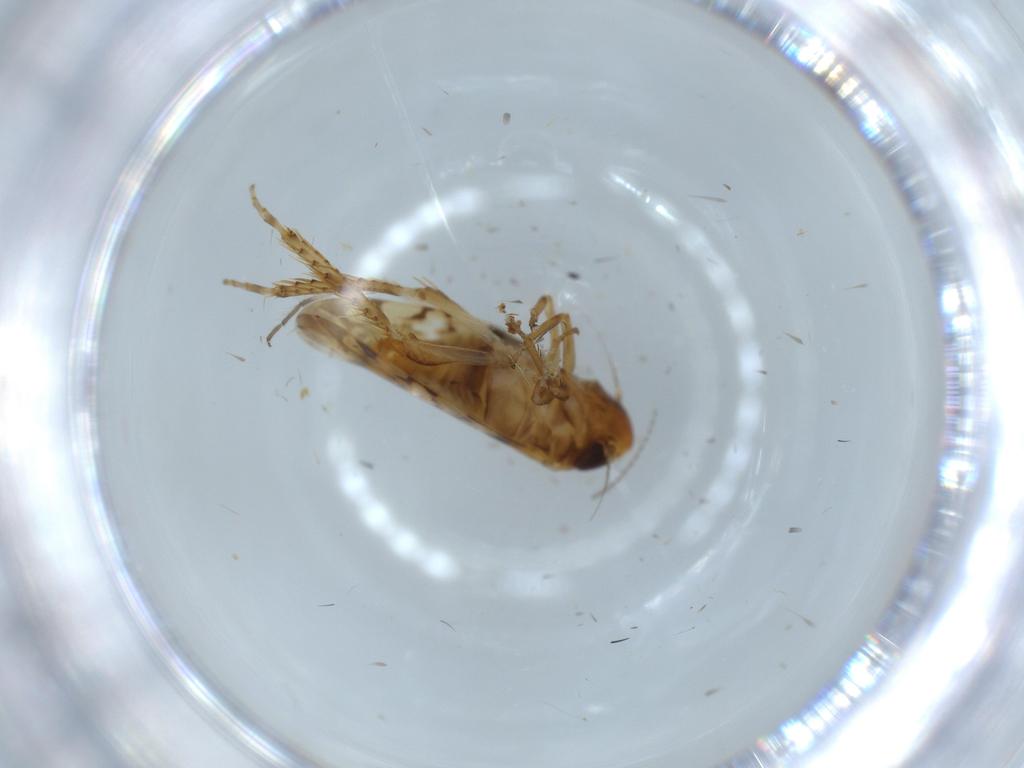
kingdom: Animalia
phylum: Arthropoda
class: Insecta
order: Hemiptera
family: Cicadellidae
